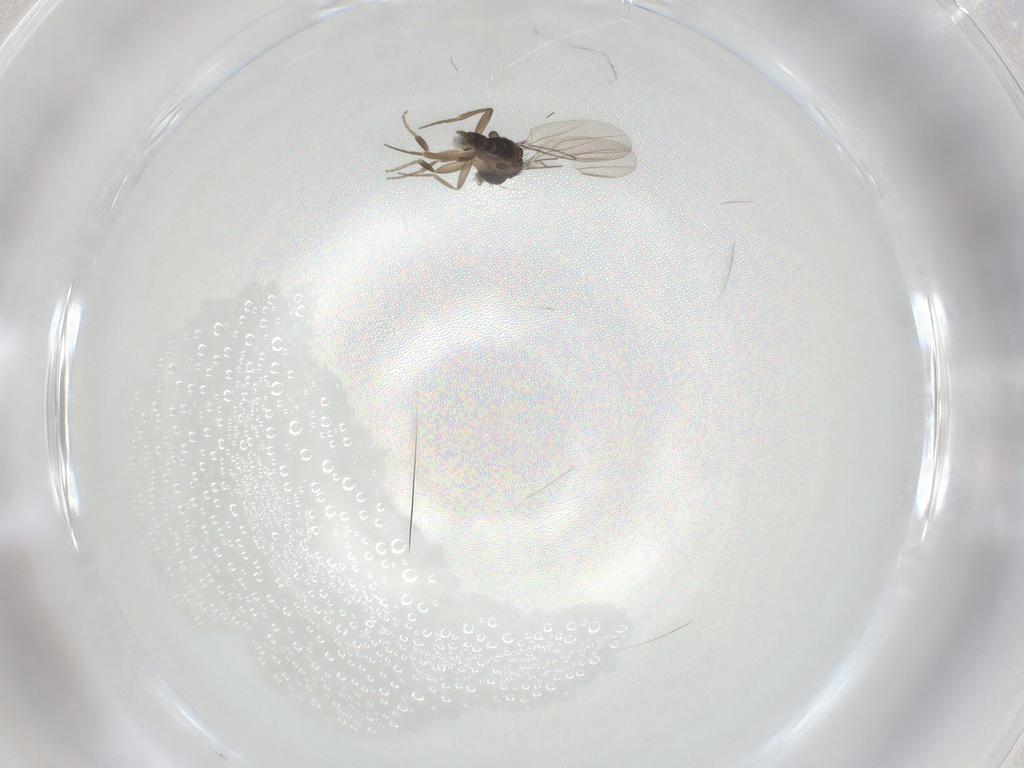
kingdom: Animalia
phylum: Arthropoda
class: Insecta
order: Diptera
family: Phoridae
